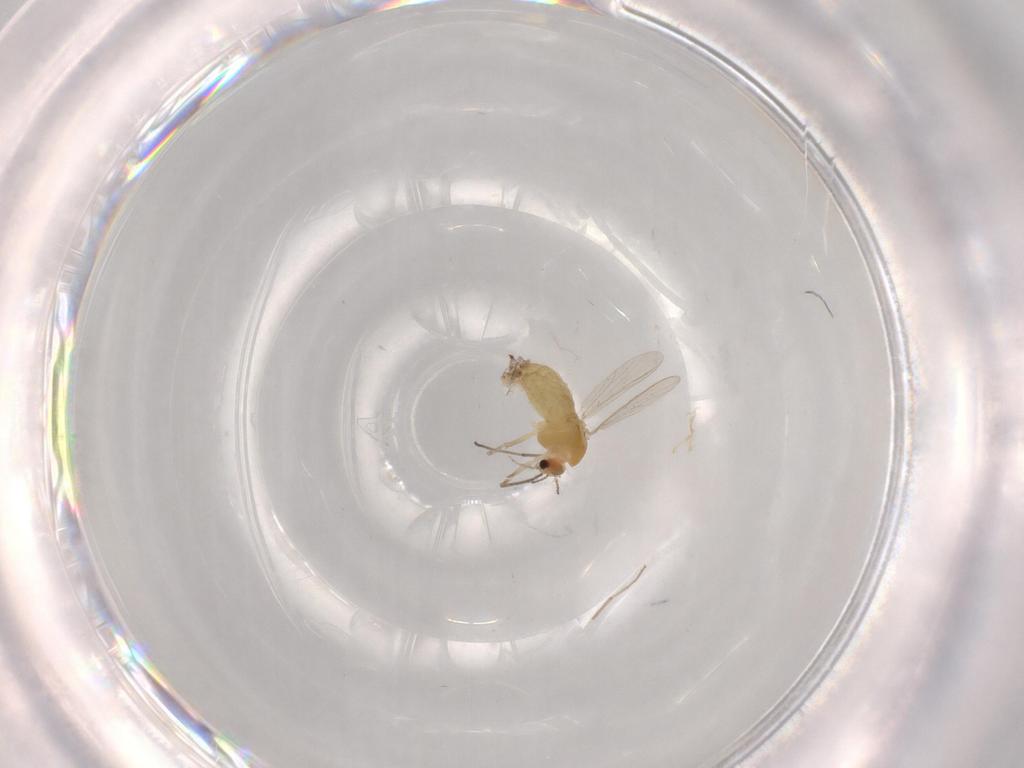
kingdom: Animalia
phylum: Arthropoda
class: Insecta
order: Diptera
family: Chironomidae
